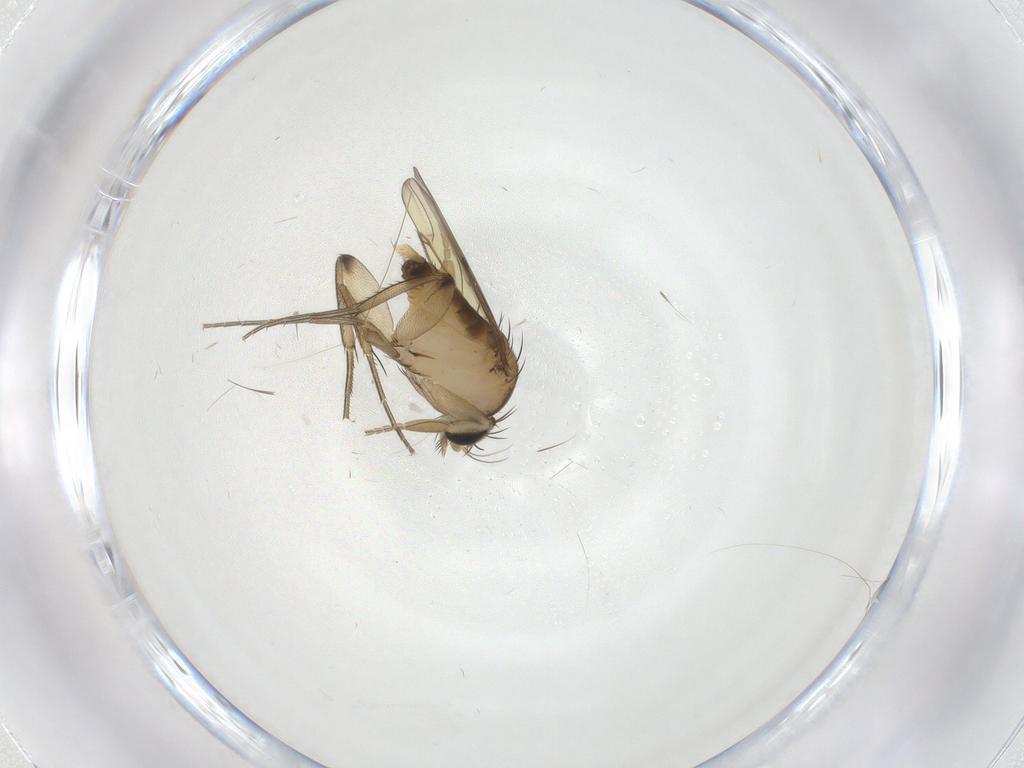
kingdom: Animalia
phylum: Arthropoda
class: Insecta
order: Diptera
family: Phoridae
